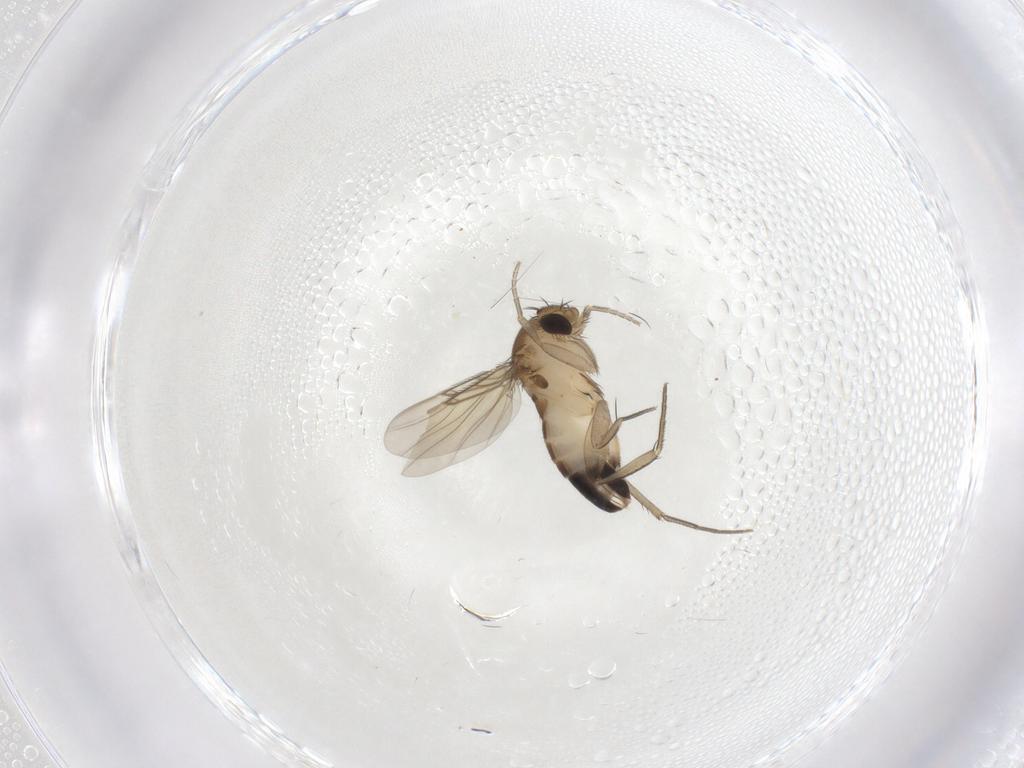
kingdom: Animalia
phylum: Arthropoda
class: Insecta
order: Diptera
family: Phoridae
